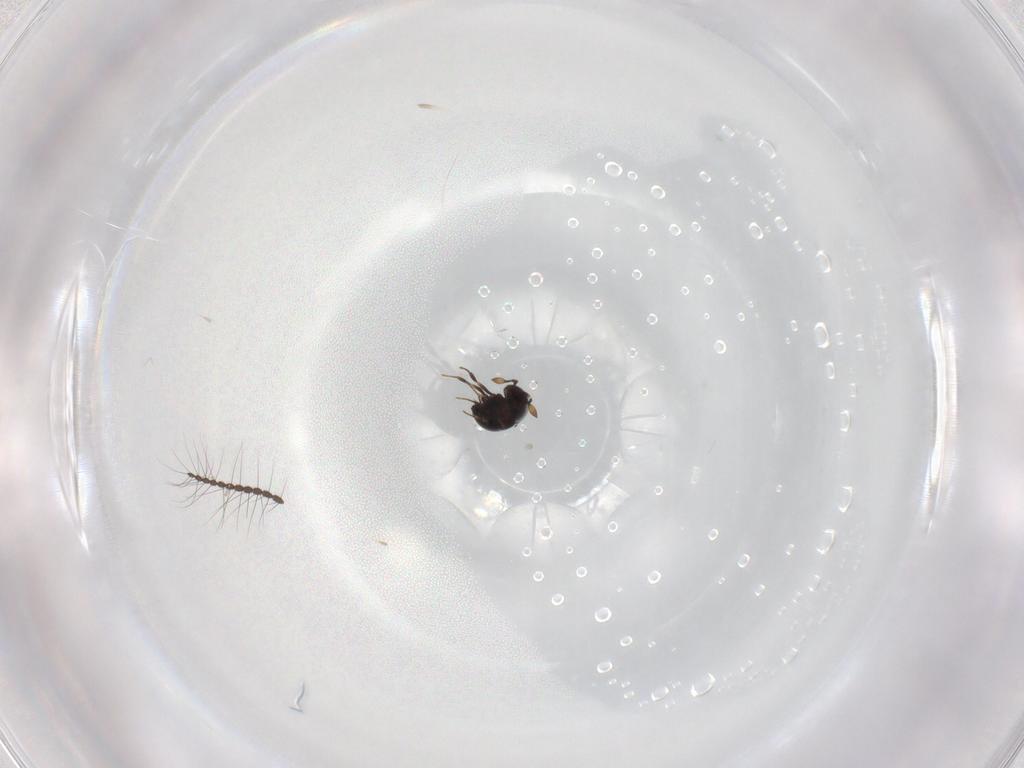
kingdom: Animalia
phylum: Arthropoda
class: Insecta
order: Hymenoptera
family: Scelionidae
